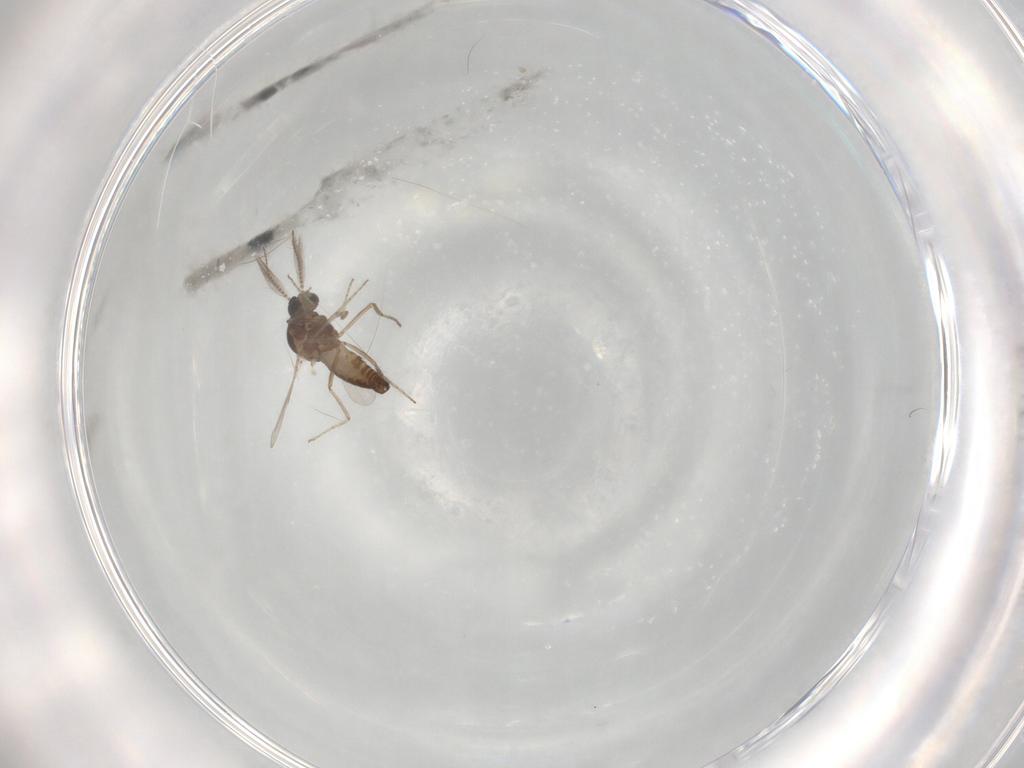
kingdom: Animalia
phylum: Arthropoda
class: Insecta
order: Diptera
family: Ceratopogonidae
